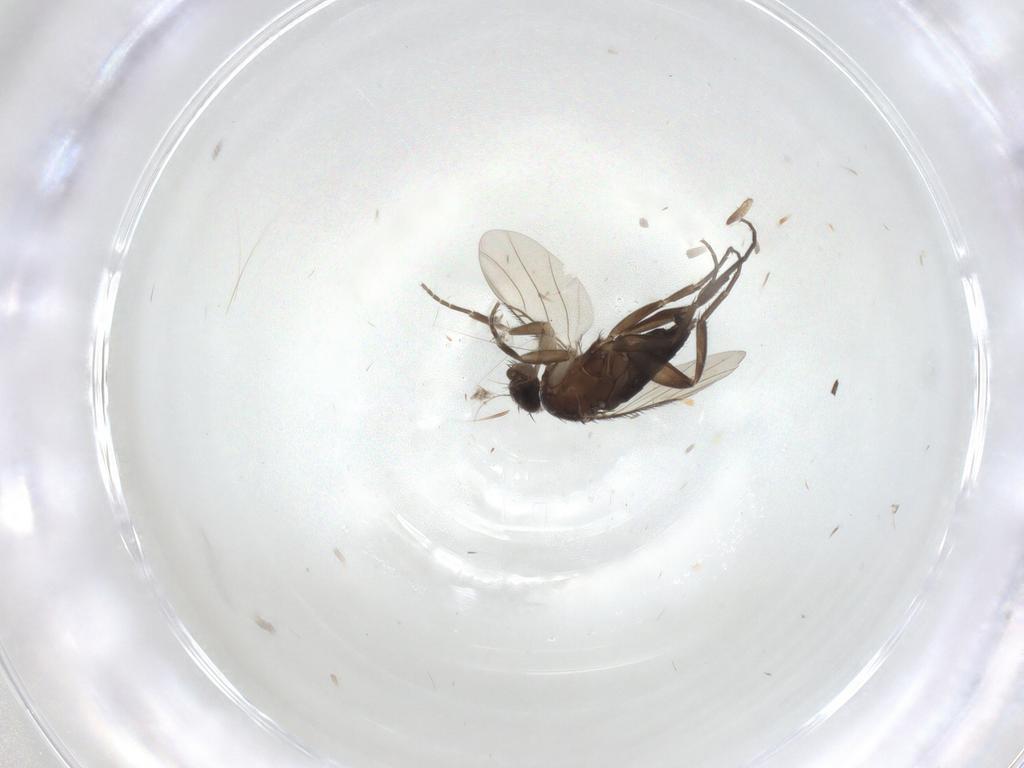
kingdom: Animalia
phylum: Arthropoda
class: Insecta
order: Diptera
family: Phoridae
